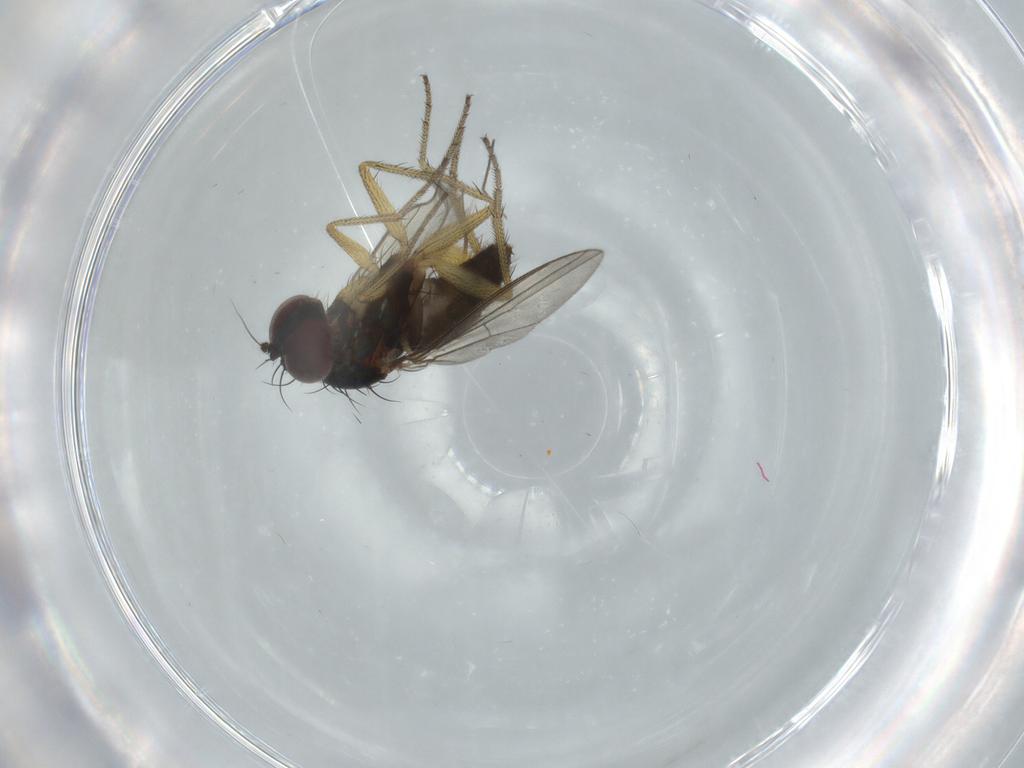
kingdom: Animalia
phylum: Arthropoda
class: Insecta
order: Diptera
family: Dolichopodidae
